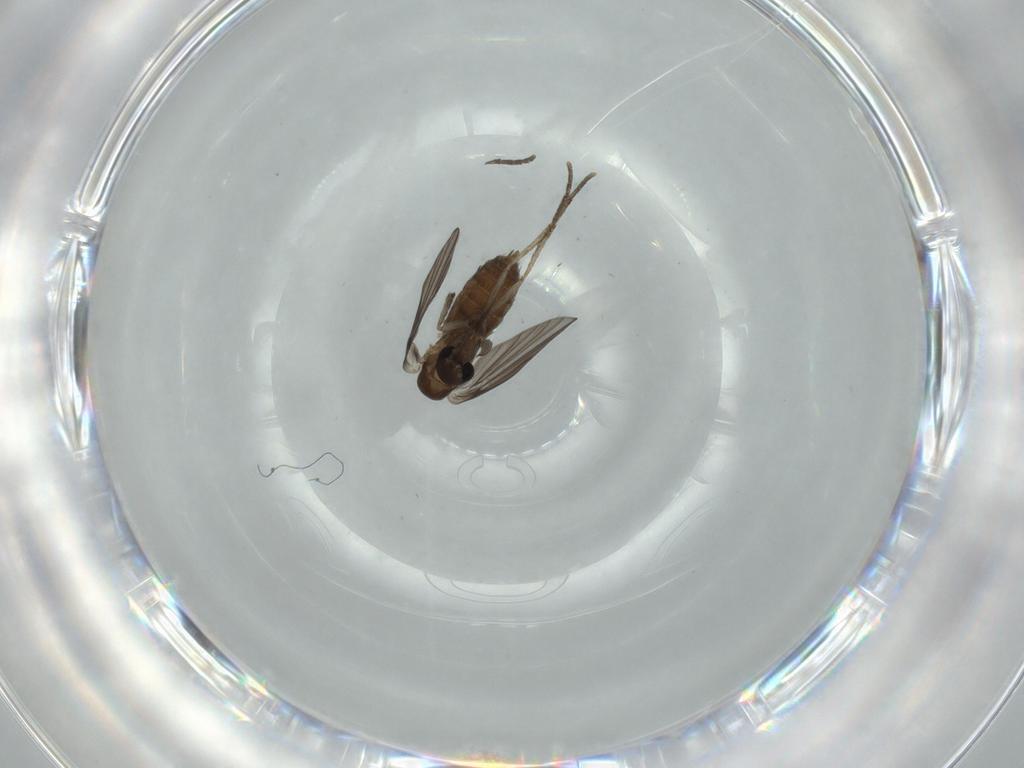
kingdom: Animalia
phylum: Arthropoda
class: Insecta
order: Diptera
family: Psychodidae
